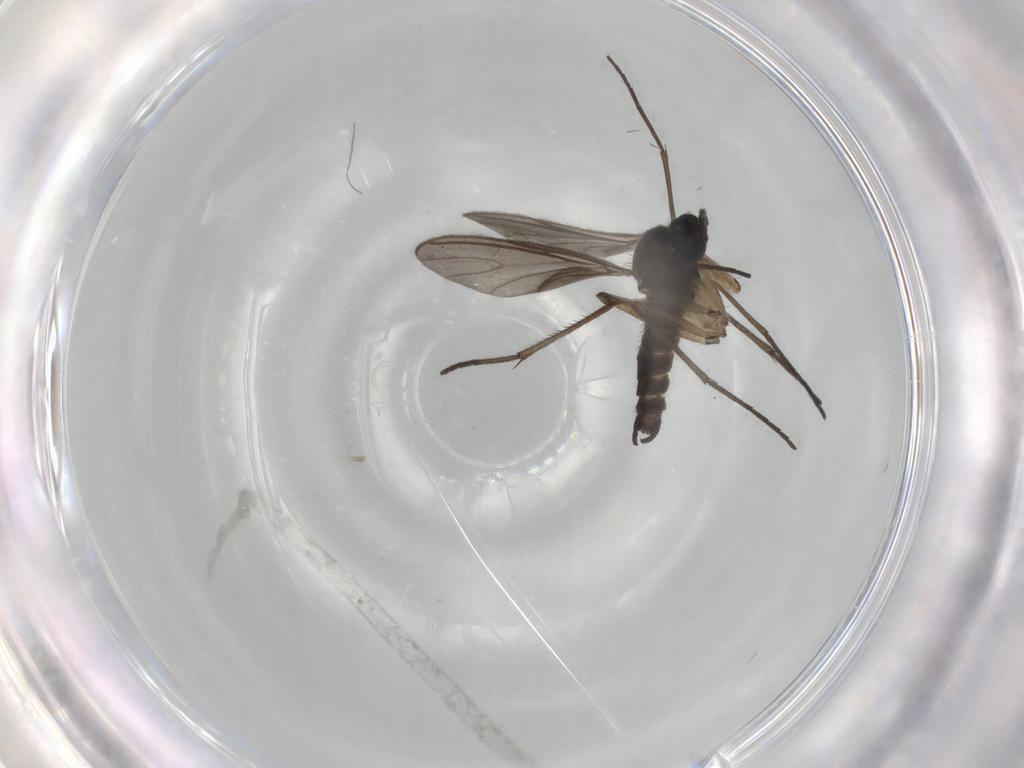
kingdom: Animalia
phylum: Arthropoda
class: Insecta
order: Diptera
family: Sciaridae
